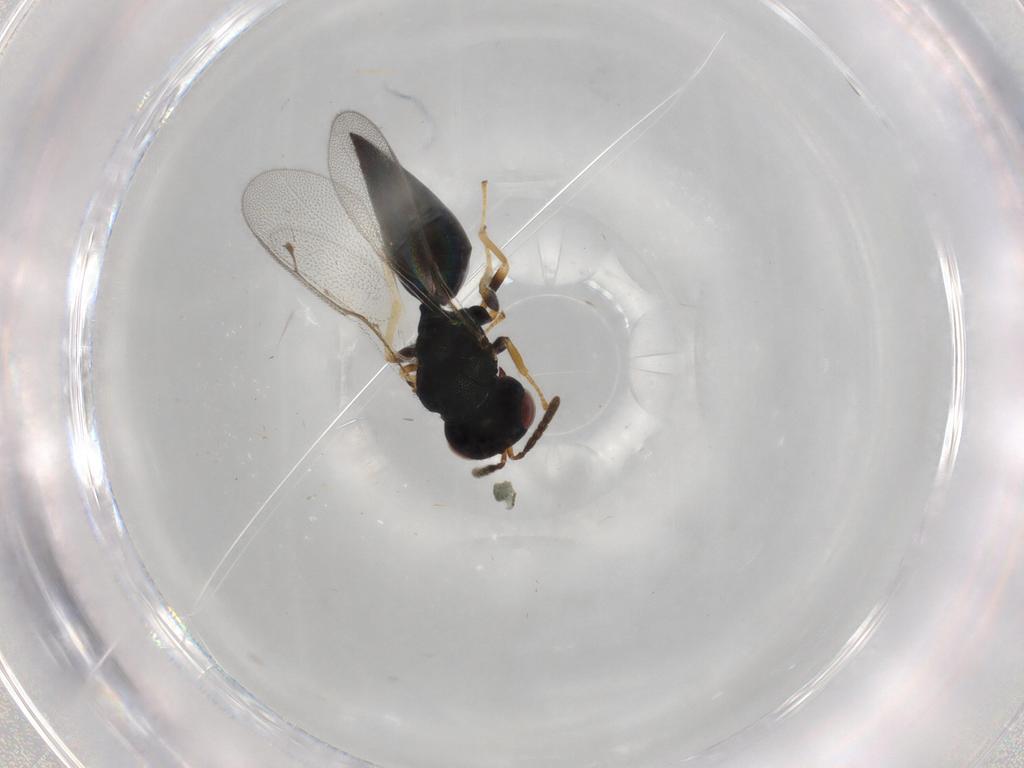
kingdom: Animalia
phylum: Arthropoda
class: Insecta
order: Hymenoptera
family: Pteromalidae
